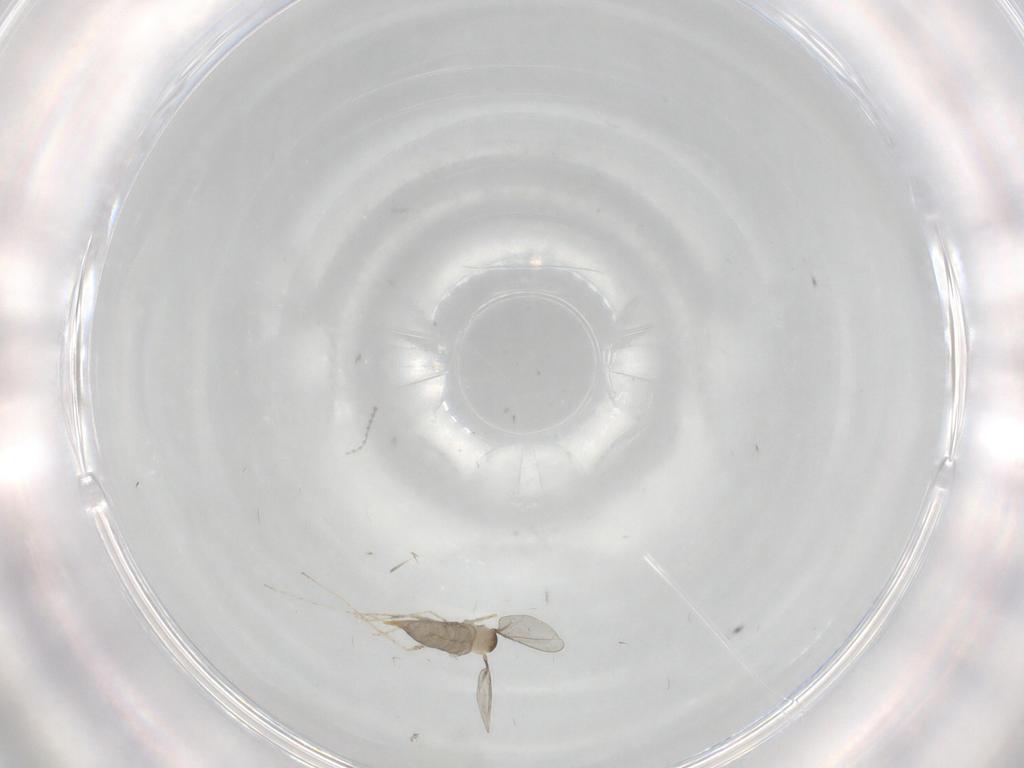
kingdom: Animalia
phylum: Arthropoda
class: Insecta
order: Diptera
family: Cecidomyiidae
